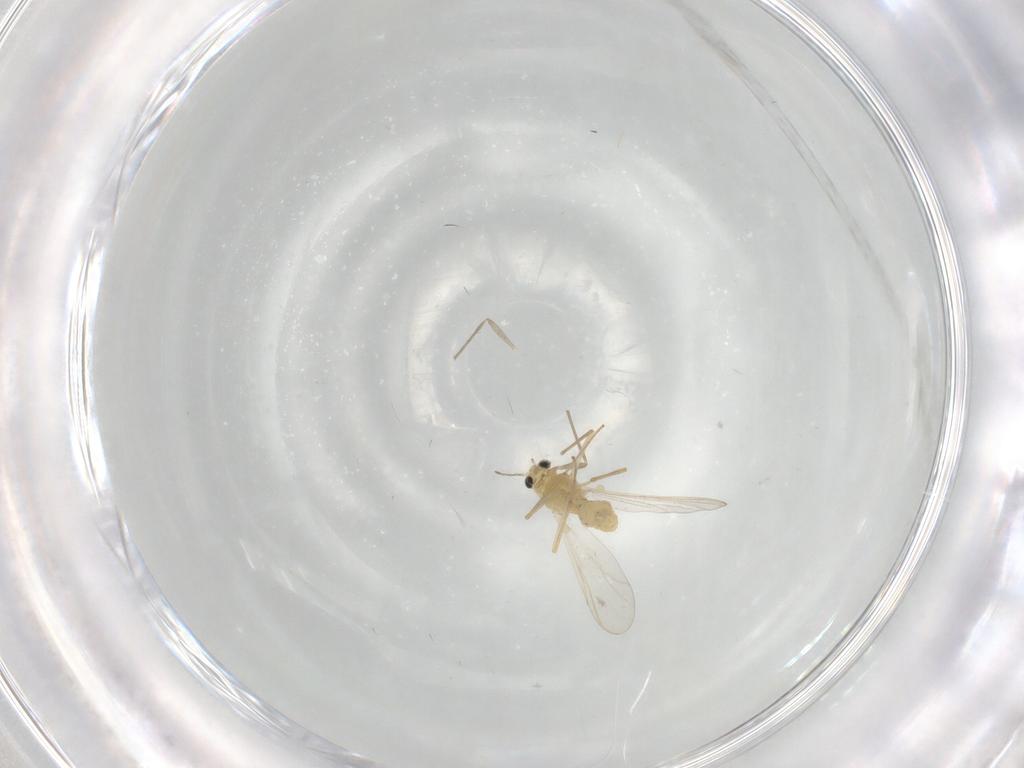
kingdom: Animalia
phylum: Arthropoda
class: Insecta
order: Diptera
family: Chironomidae
